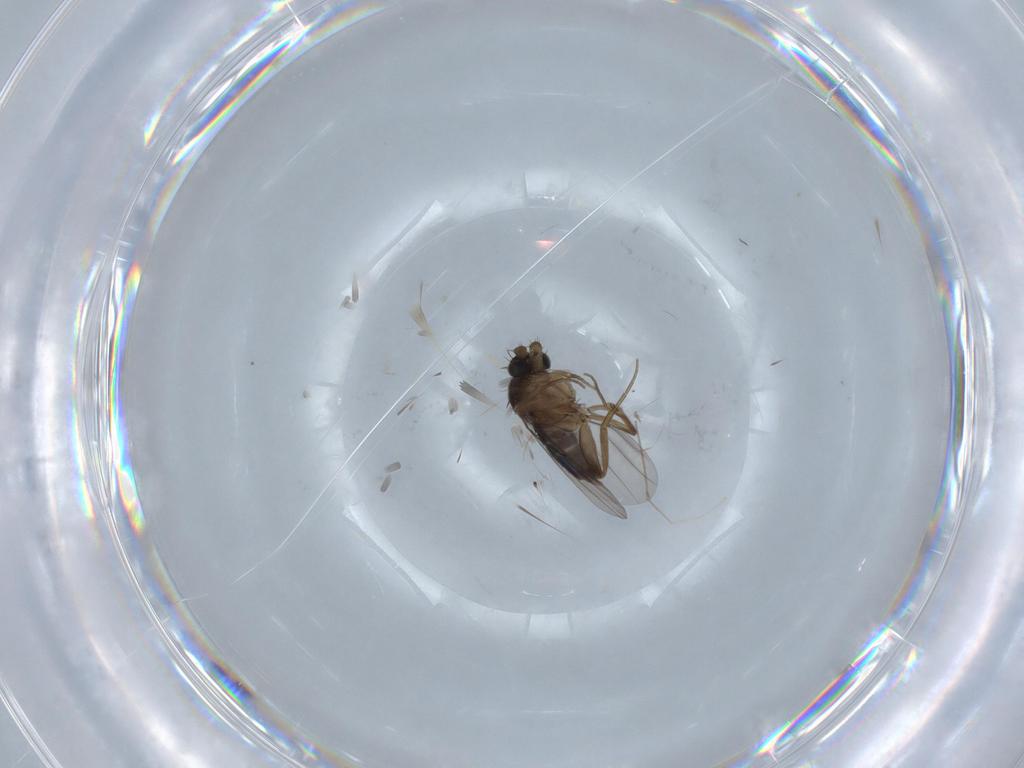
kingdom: Animalia
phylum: Arthropoda
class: Insecta
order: Diptera
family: Phoridae
